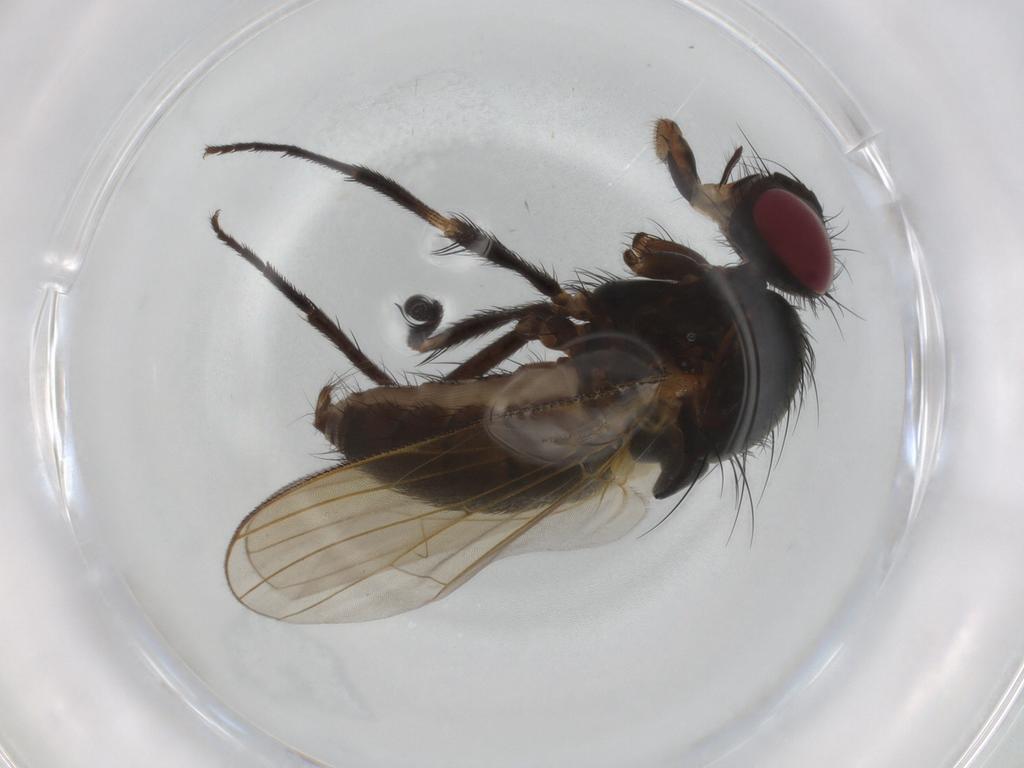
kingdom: Animalia
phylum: Arthropoda
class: Insecta
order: Diptera
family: Fannia
